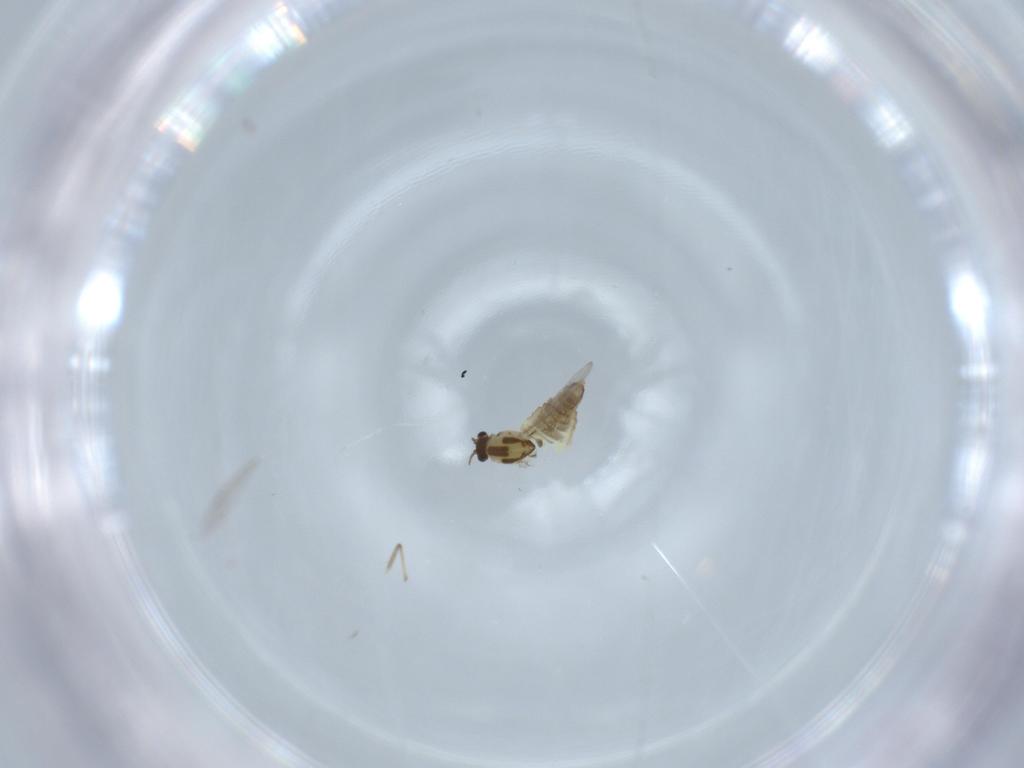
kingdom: Animalia
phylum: Arthropoda
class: Insecta
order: Diptera
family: Chironomidae
